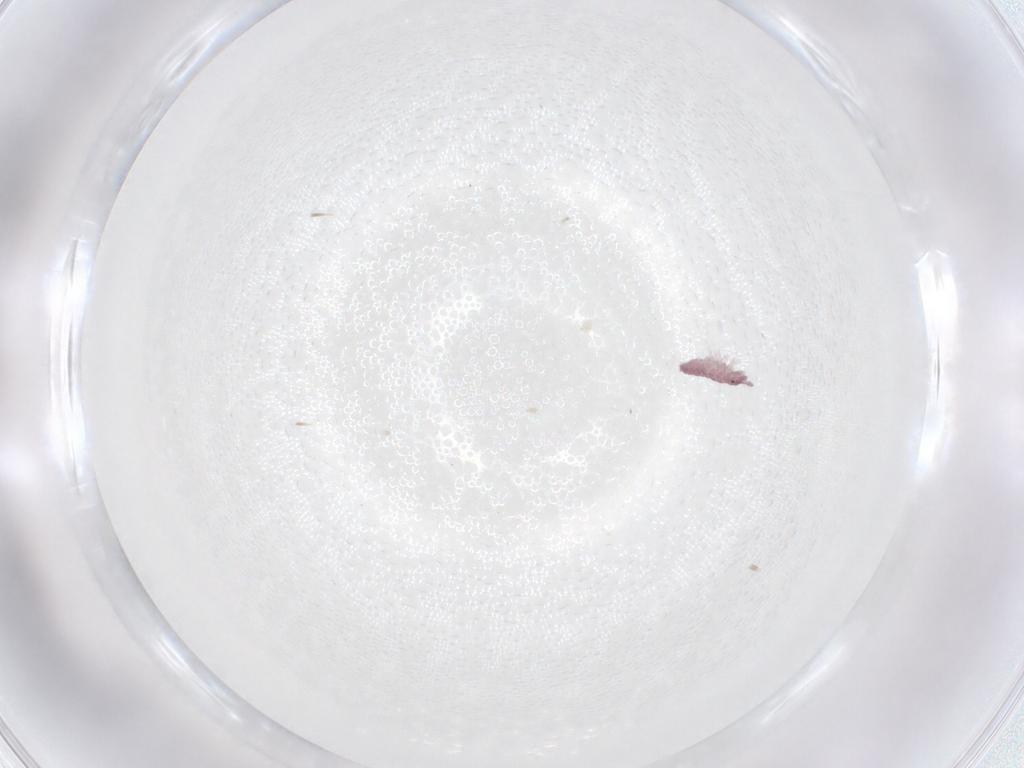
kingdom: Animalia
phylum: Arthropoda
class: Collembola
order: Poduromorpha
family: Hypogastruridae
